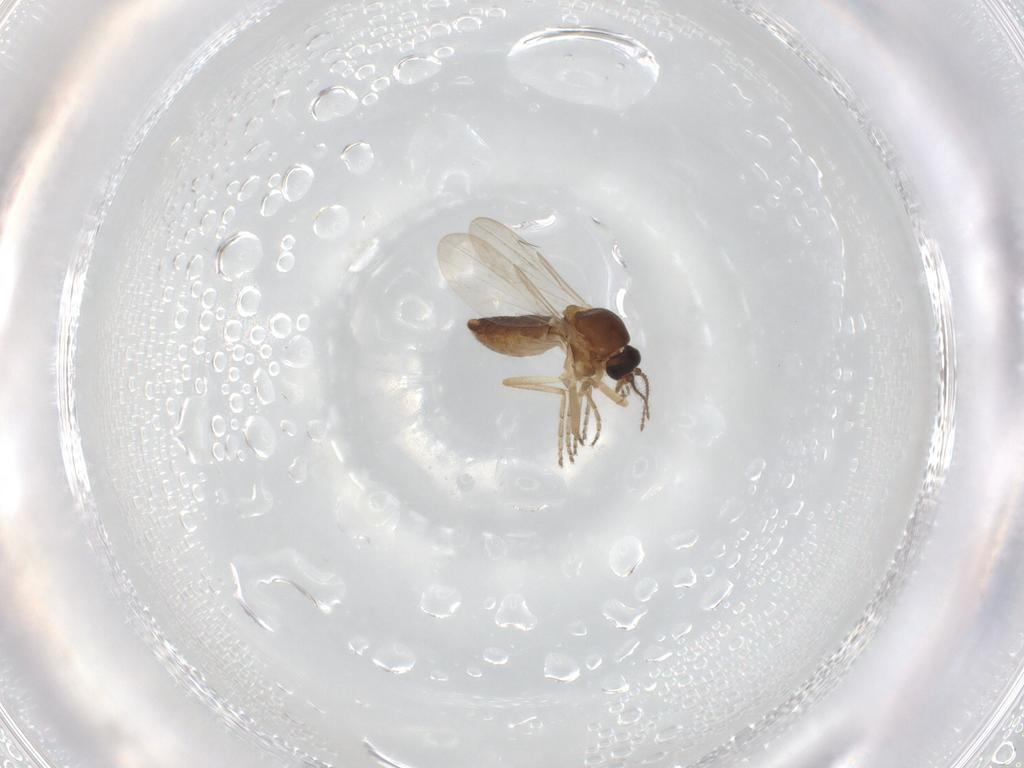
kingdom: Animalia
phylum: Arthropoda
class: Insecta
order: Diptera
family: Ceratopogonidae
